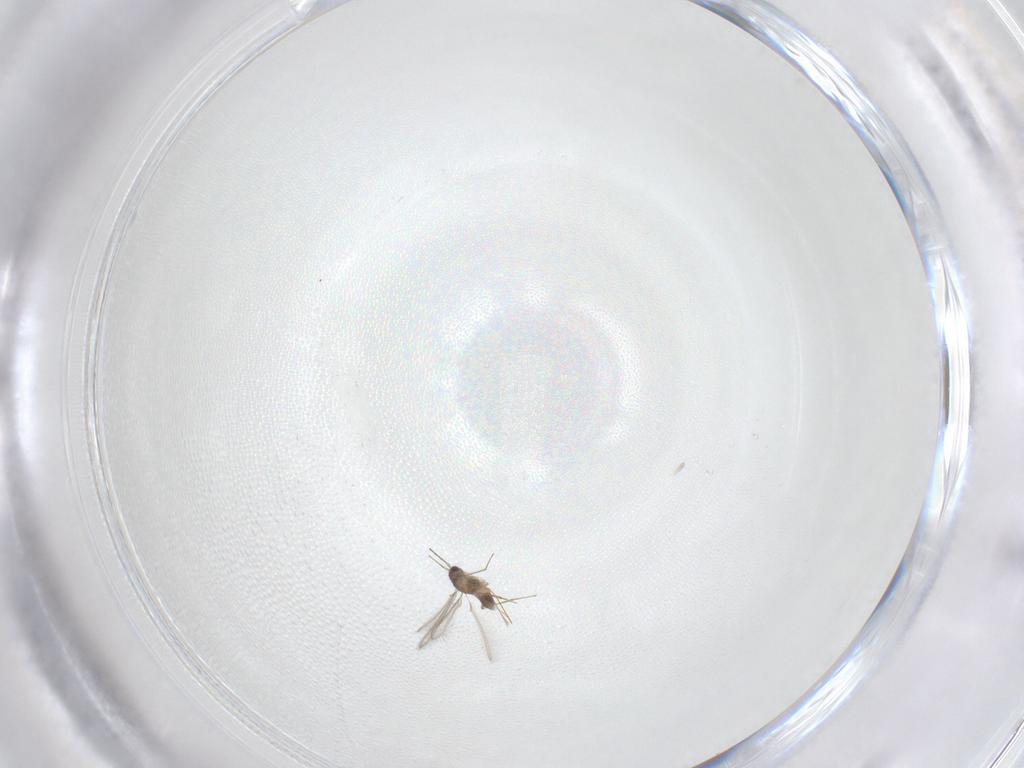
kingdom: Animalia
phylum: Arthropoda
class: Insecta
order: Hymenoptera
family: Mymaridae
